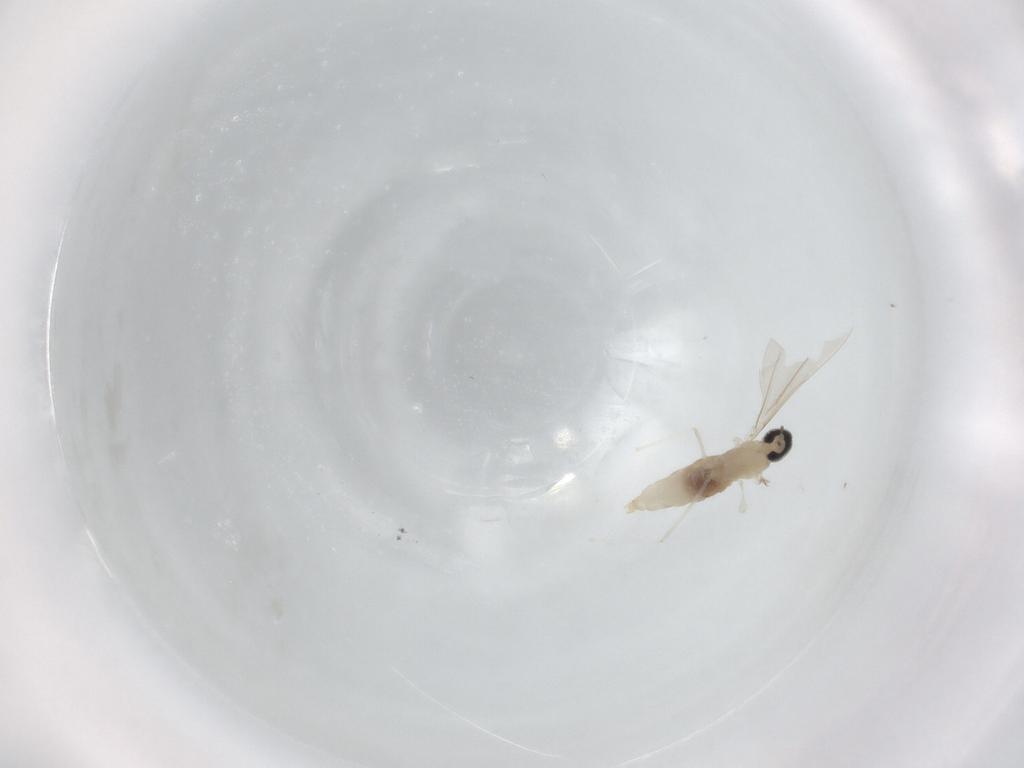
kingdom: Animalia
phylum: Arthropoda
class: Insecta
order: Diptera
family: Cecidomyiidae
